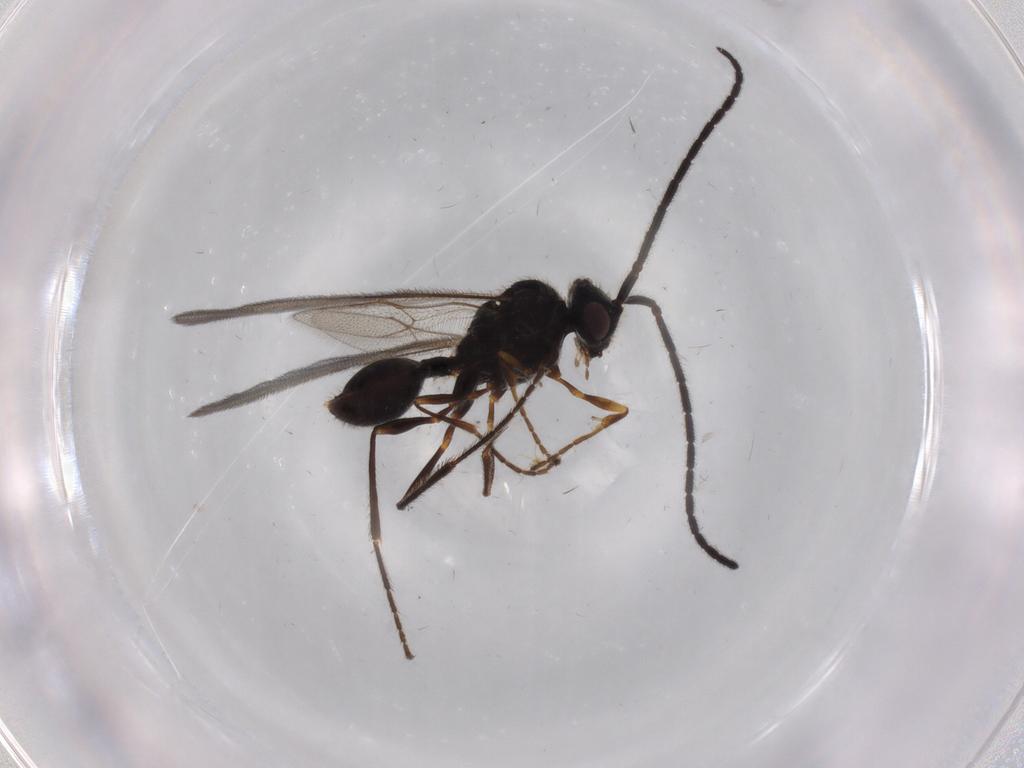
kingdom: Animalia
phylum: Arthropoda
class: Insecta
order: Hymenoptera
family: Diapriidae
